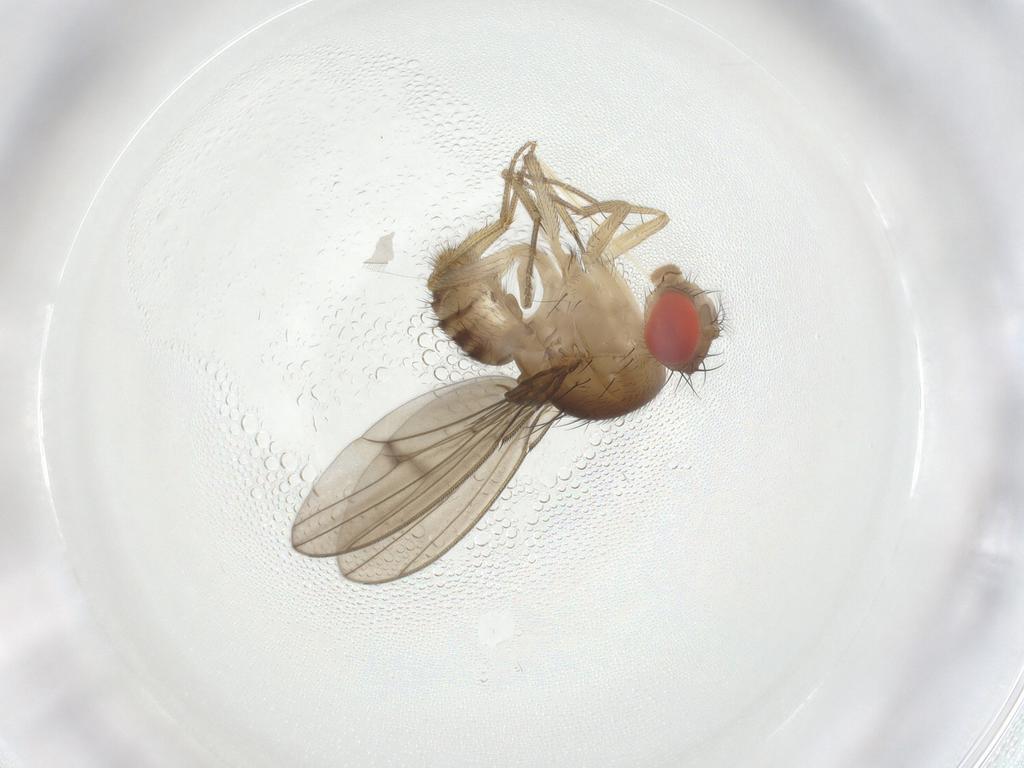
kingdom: Animalia
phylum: Arthropoda
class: Insecta
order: Diptera
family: Drosophilidae
